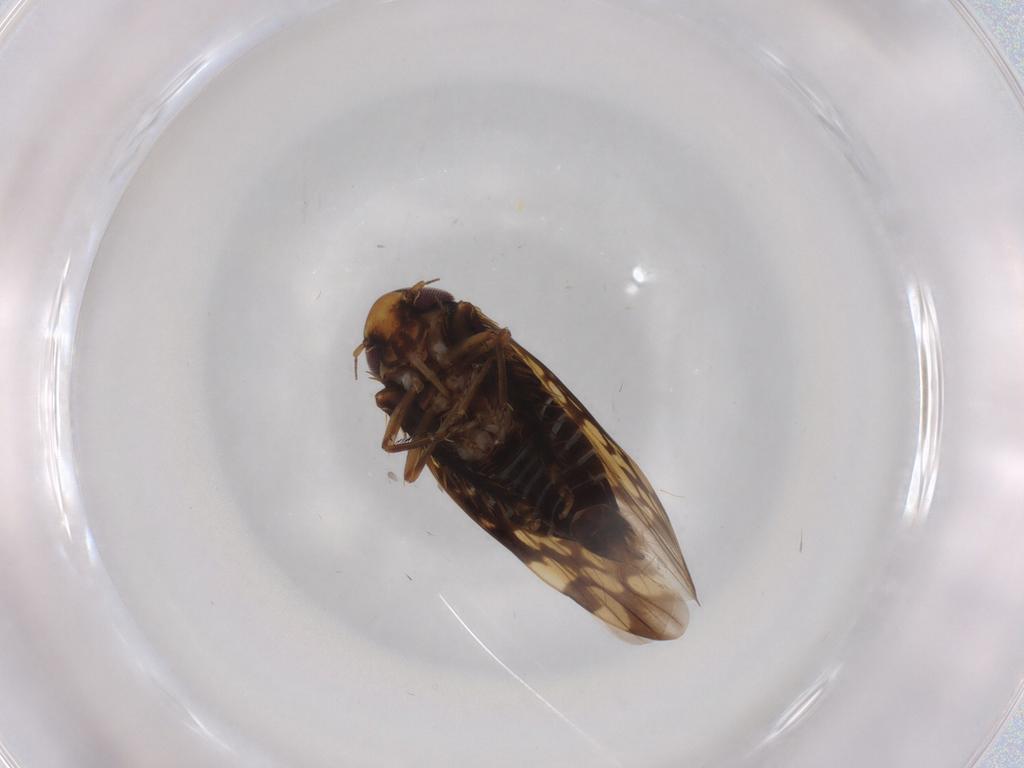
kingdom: Animalia
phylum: Arthropoda
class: Insecta
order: Hemiptera
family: Cicadellidae
